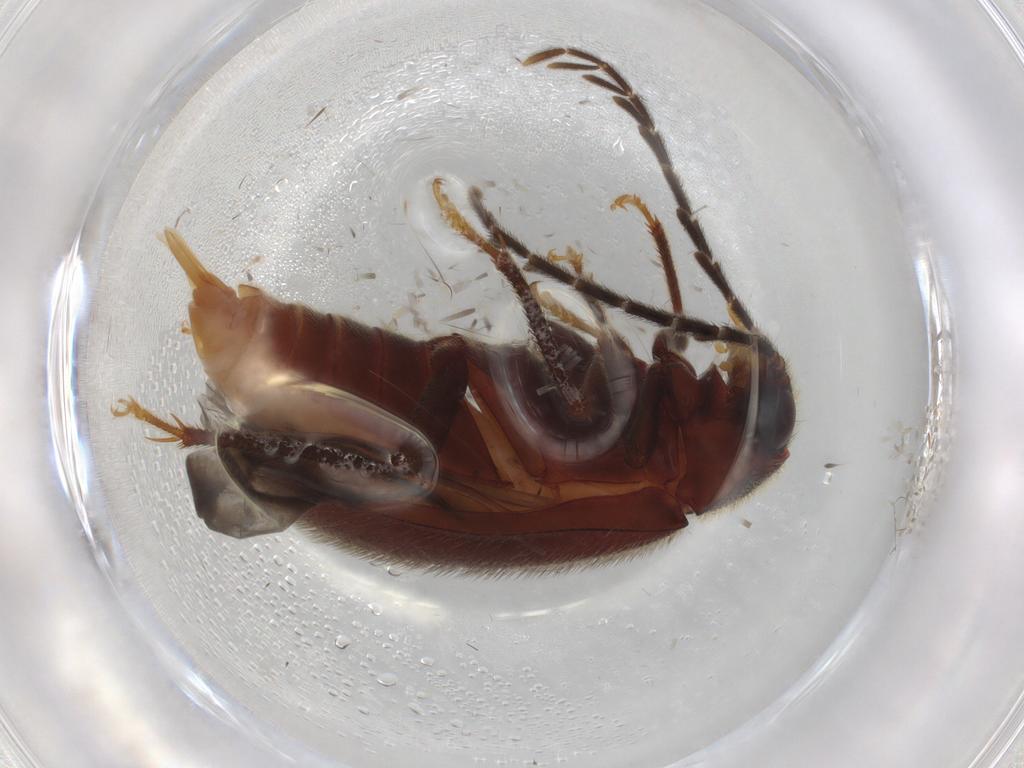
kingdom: Animalia
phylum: Arthropoda
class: Insecta
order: Coleoptera
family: Ptilodactylidae
